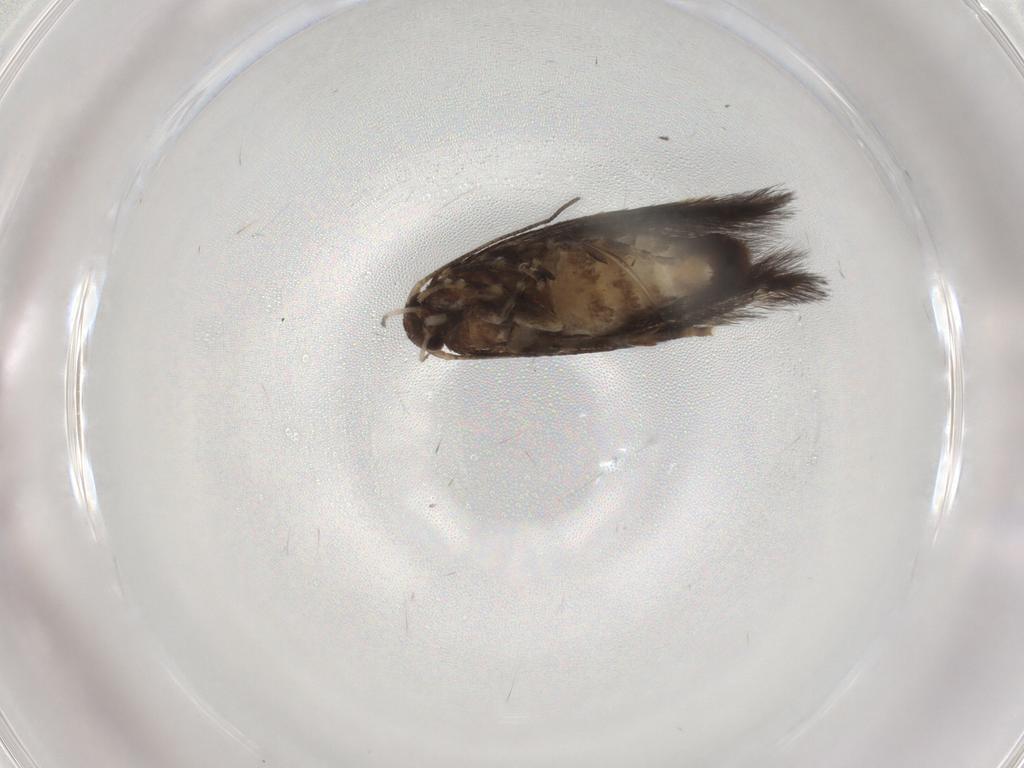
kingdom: Animalia
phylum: Arthropoda
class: Insecta
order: Lepidoptera
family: Elachistidae
